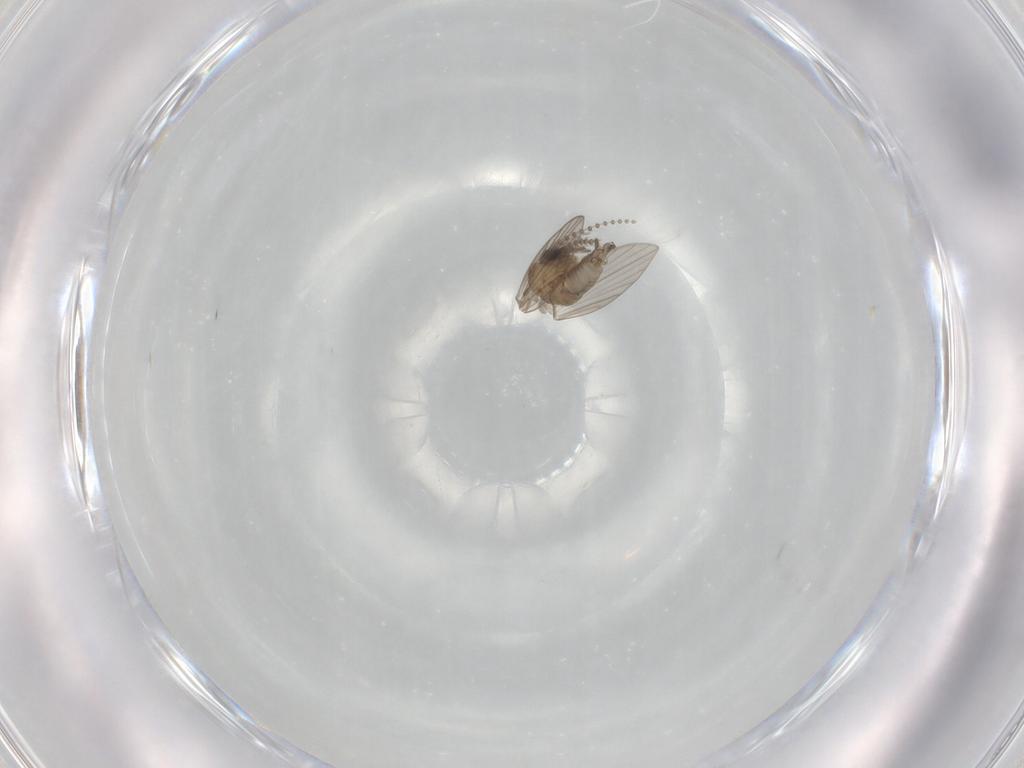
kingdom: Animalia
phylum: Arthropoda
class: Insecta
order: Diptera
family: Psychodidae
